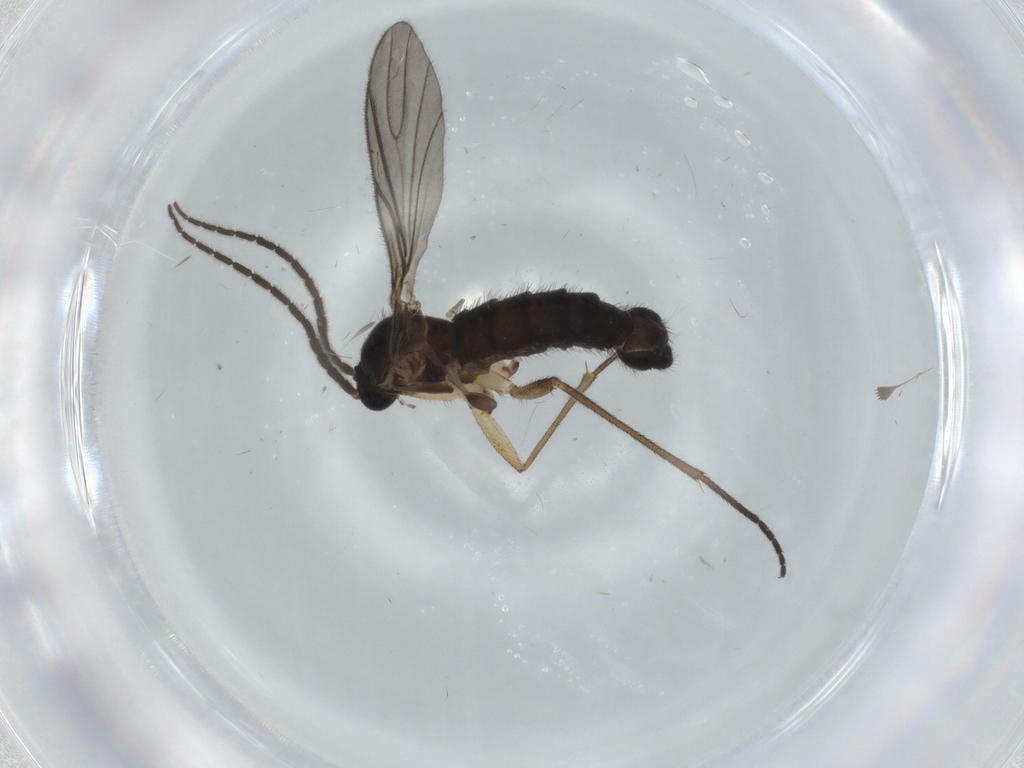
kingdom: Animalia
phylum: Arthropoda
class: Insecta
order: Diptera
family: Sciaridae
